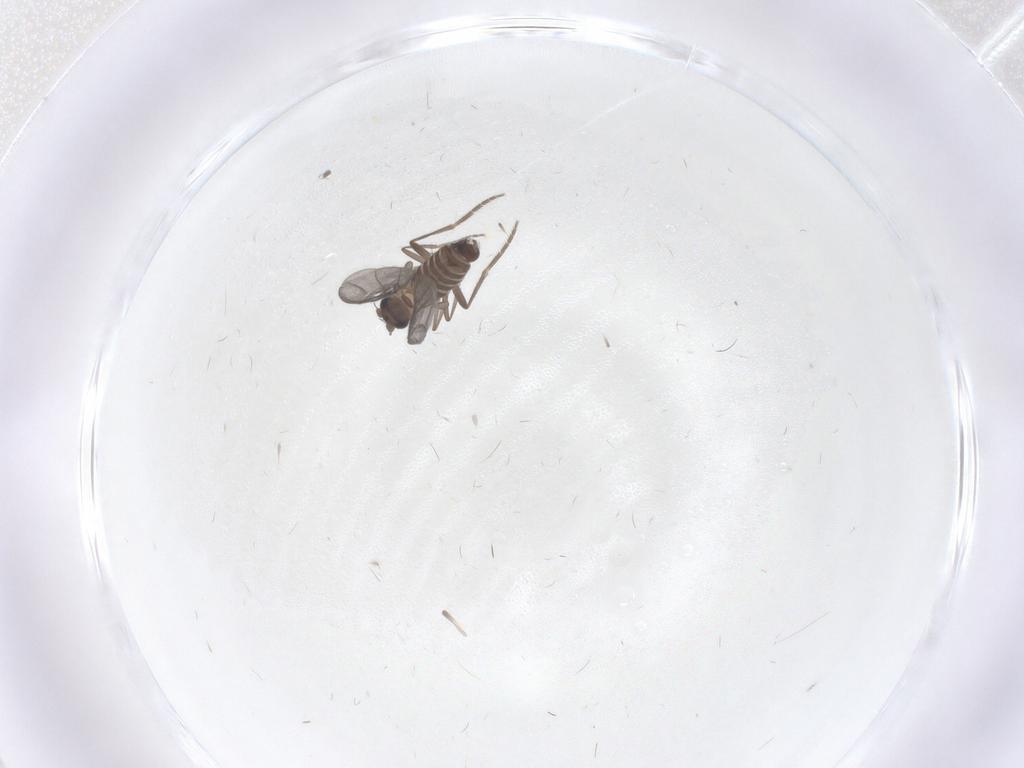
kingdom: Animalia
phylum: Arthropoda
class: Insecta
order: Diptera
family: Phoridae
